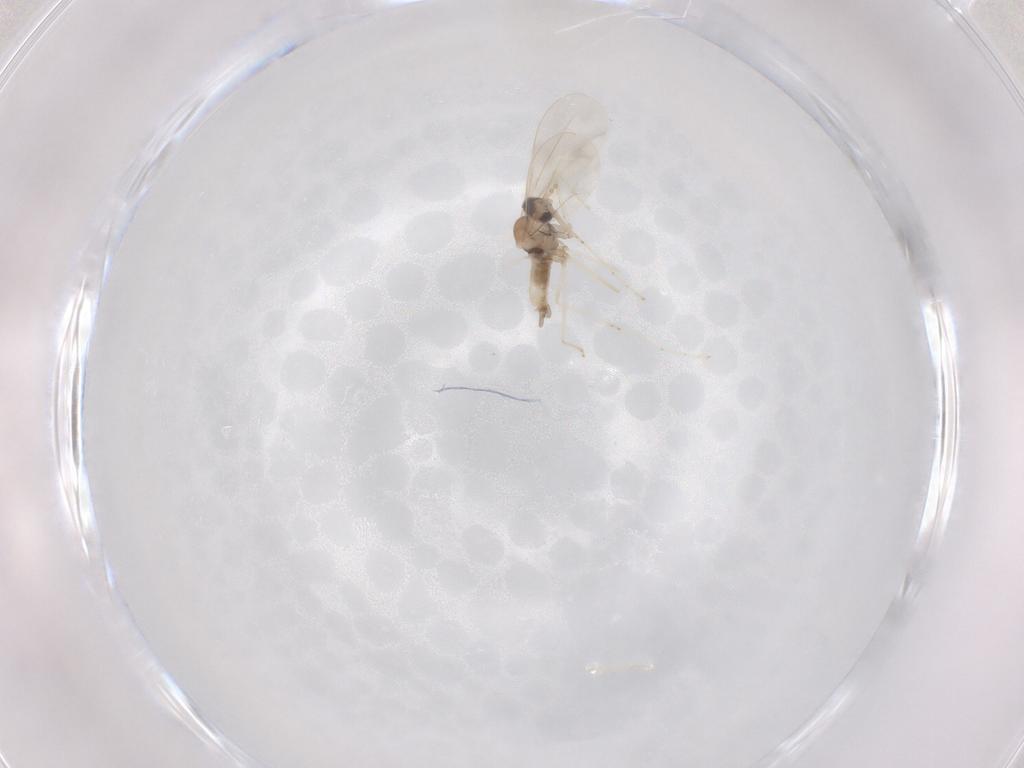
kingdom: Animalia
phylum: Arthropoda
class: Insecta
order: Diptera
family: Cecidomyiidae
